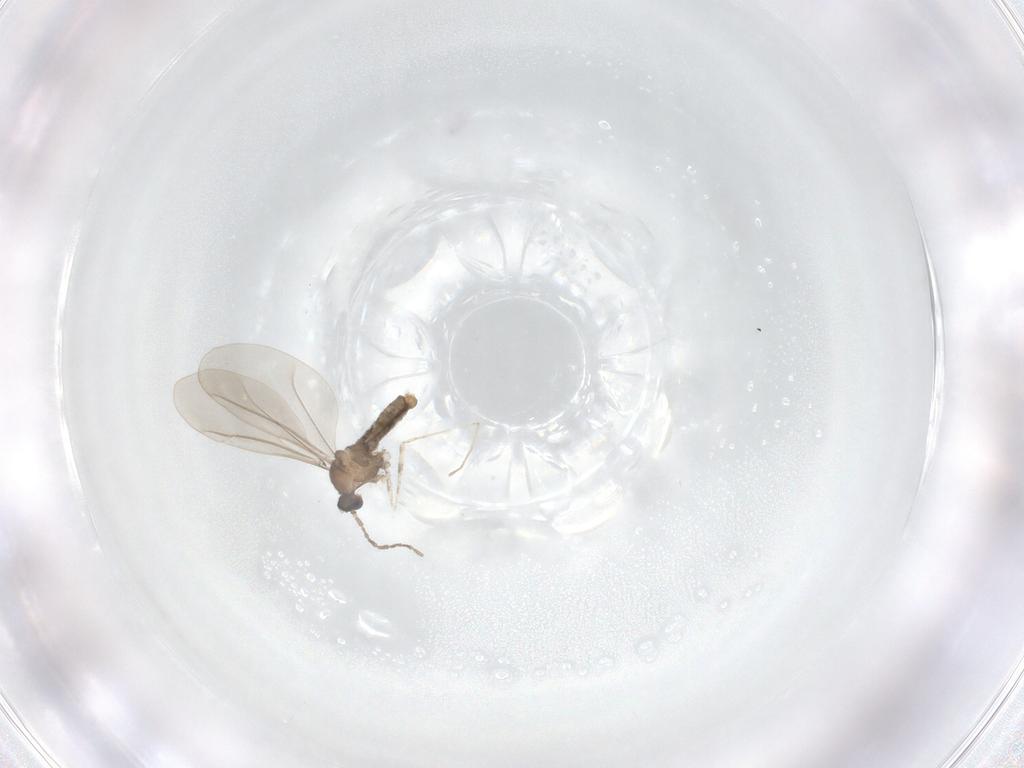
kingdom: Animalia
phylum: Arthropoda
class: Insecta
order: Diptera
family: Cecidomyiidae
